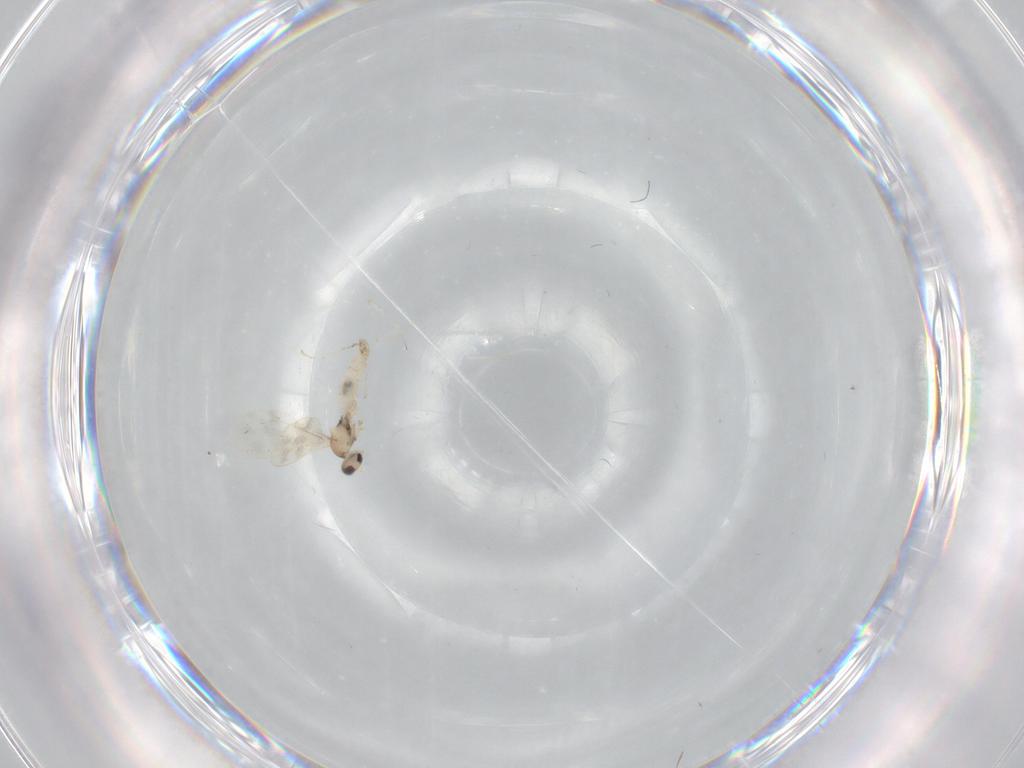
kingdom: Animalia
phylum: Arthropoda
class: Insecta
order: Diptera
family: Cecidomyiidae
